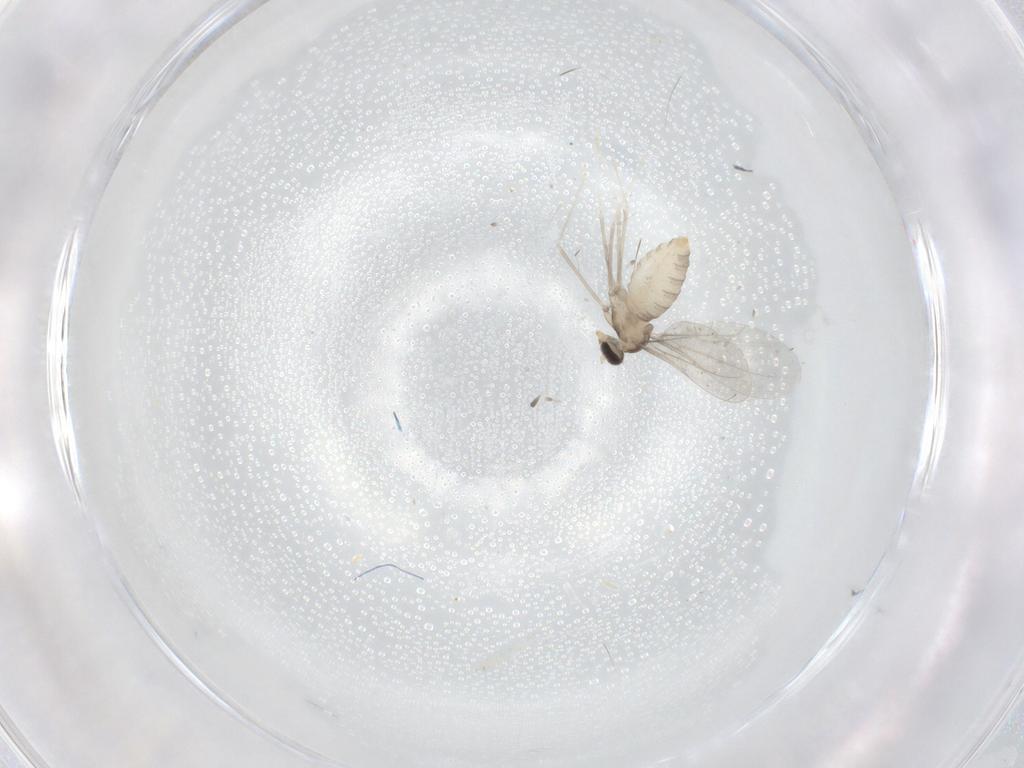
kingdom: Animalia
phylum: Arthropoda
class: Insecta
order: Diptera
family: Cecidomyiidae
